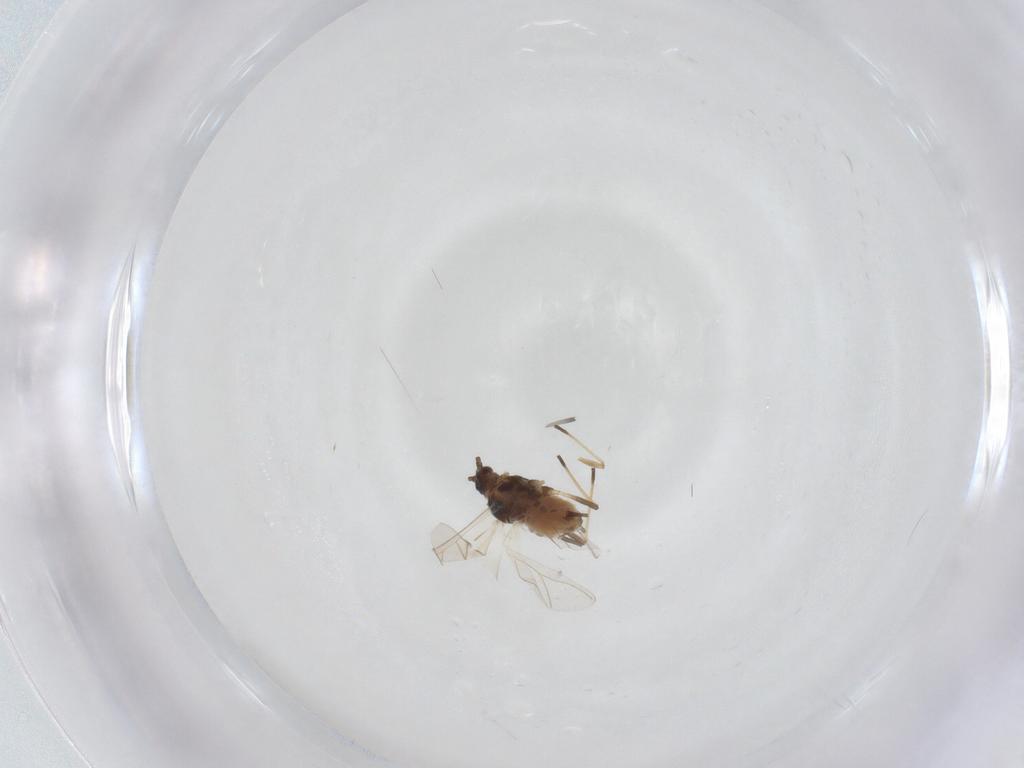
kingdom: Animalia
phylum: Arthropoda
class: Insecta
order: Hemiptera
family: Aphididae
